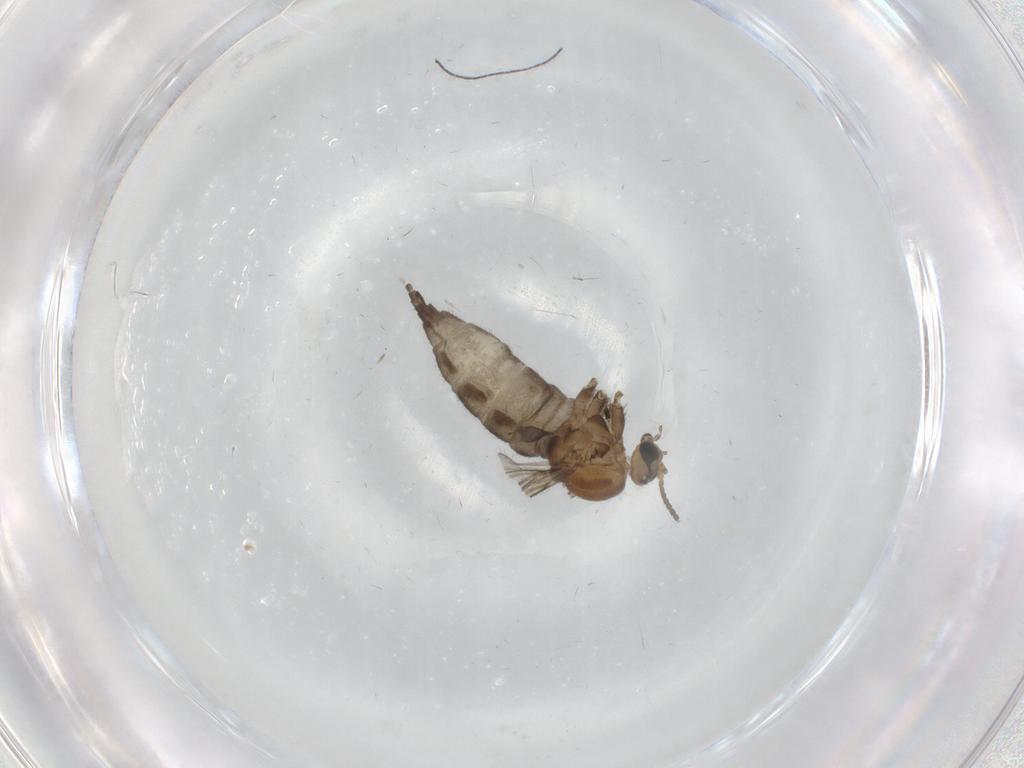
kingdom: Animalia
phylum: Arthropoda
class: Insecta
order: Diptera
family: Sciaridae
